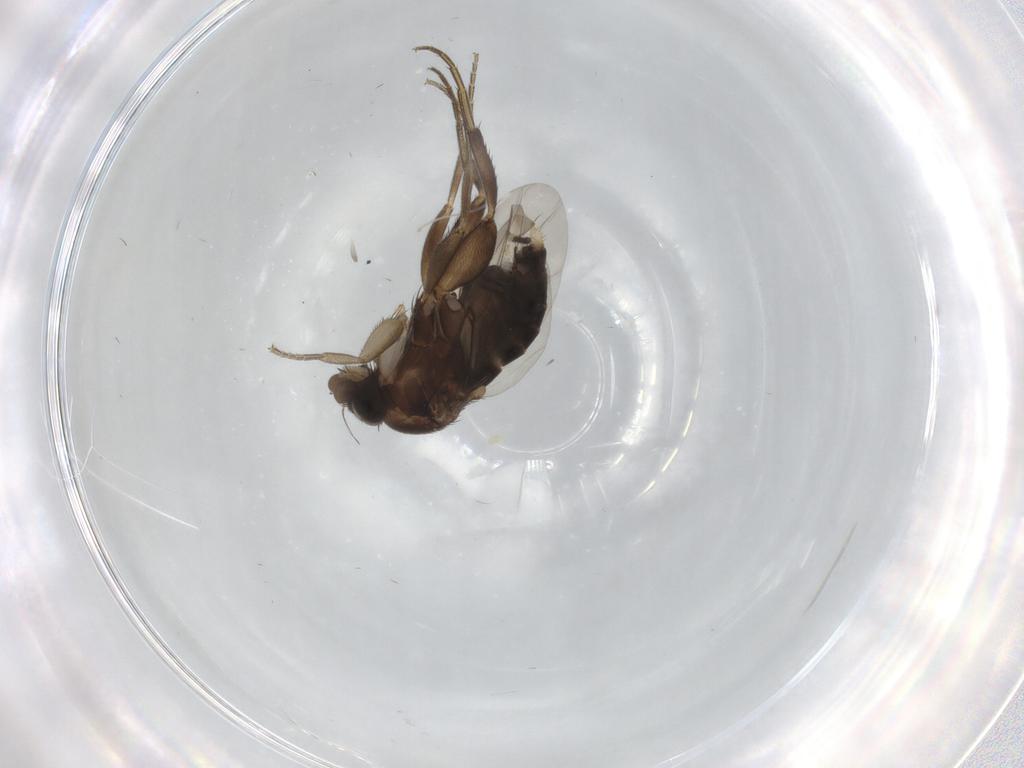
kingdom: Animalia
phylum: Arthropoda
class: Insecta
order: Diptera
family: Phoridae
